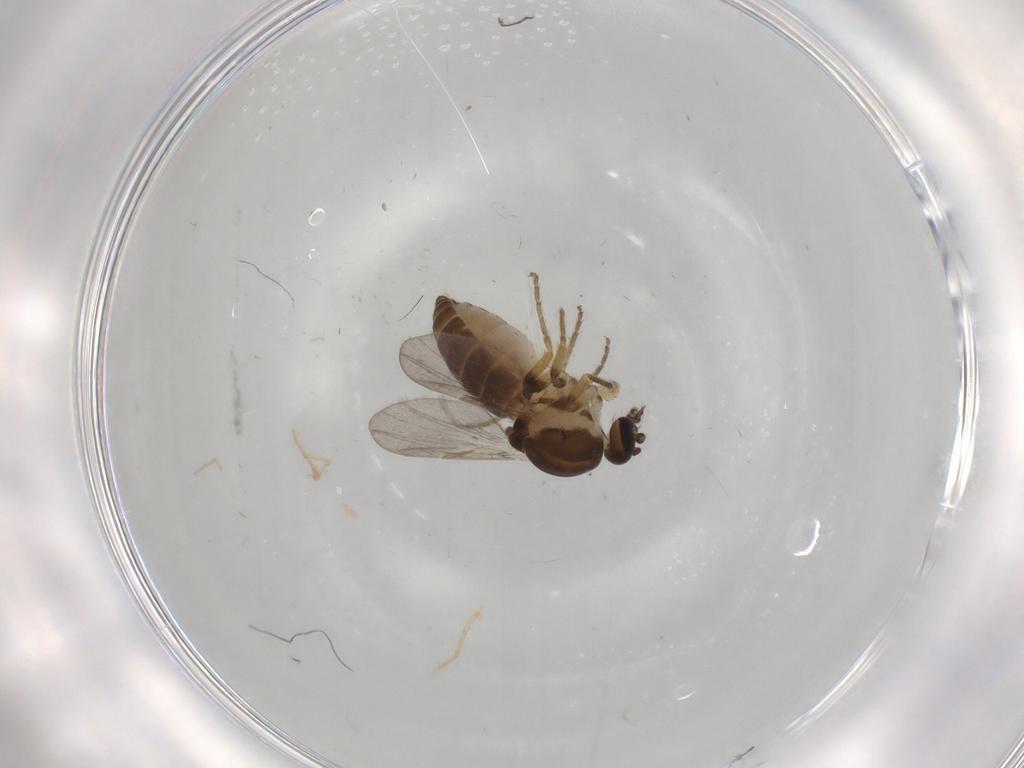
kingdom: Animalia
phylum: Arthropoda
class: Insecta
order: Diptera
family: Ceratopogonidae
